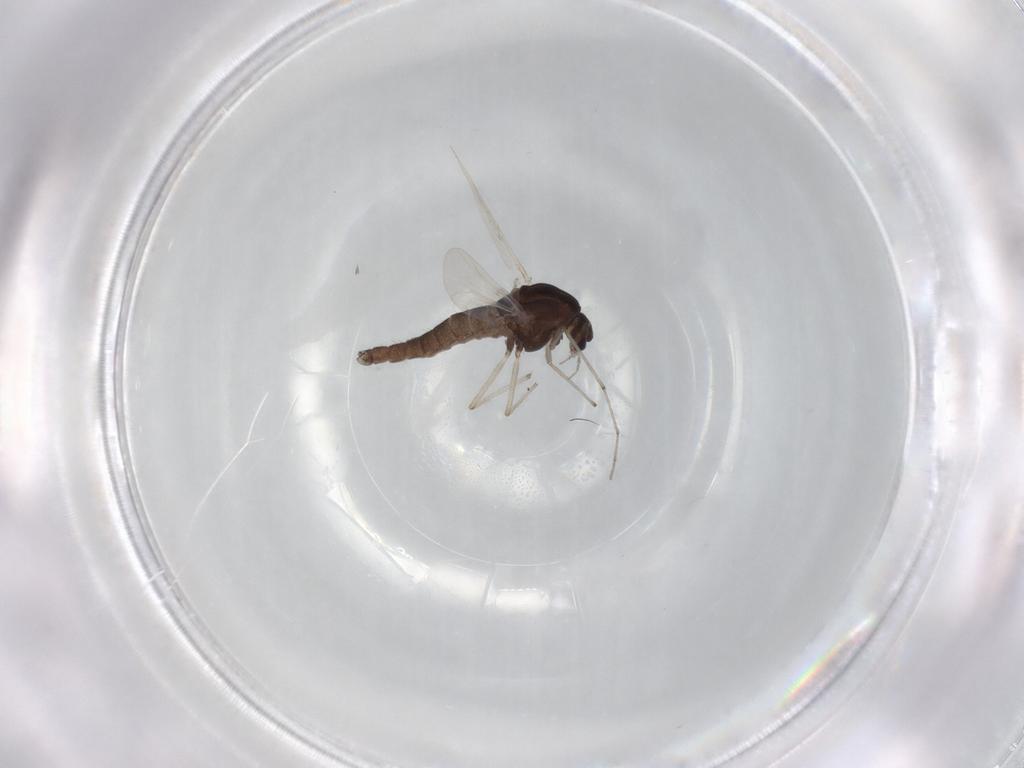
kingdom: Animalia
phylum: Arthropoda
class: Insecta
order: Diptera
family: Chironomidae
